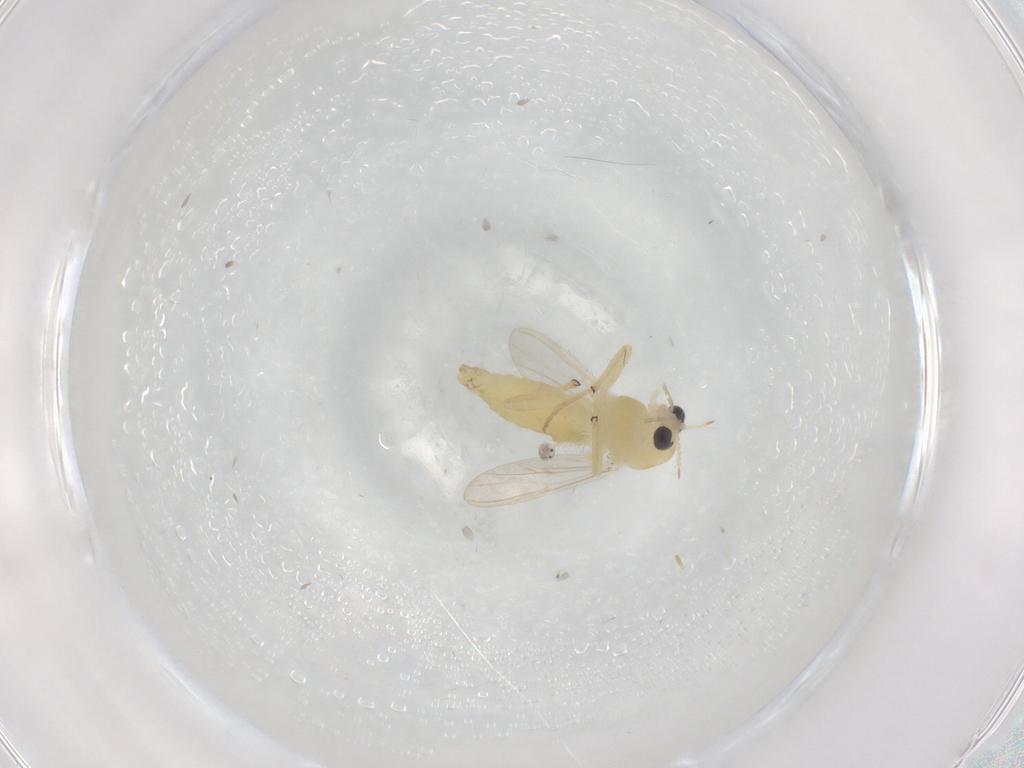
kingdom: Animalia
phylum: Arthropoda
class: Insecta
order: Diptera
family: Chironomidae
